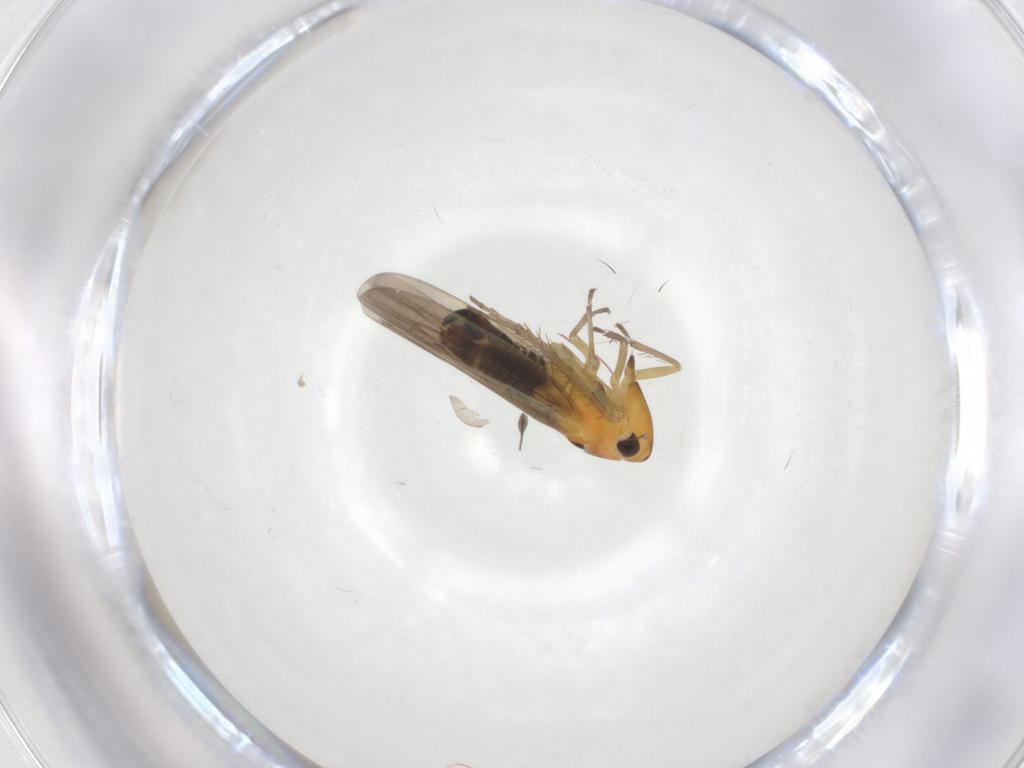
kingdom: Animalia
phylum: Arthropoda
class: Insecta
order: Hemiptera
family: Cicadellidae
